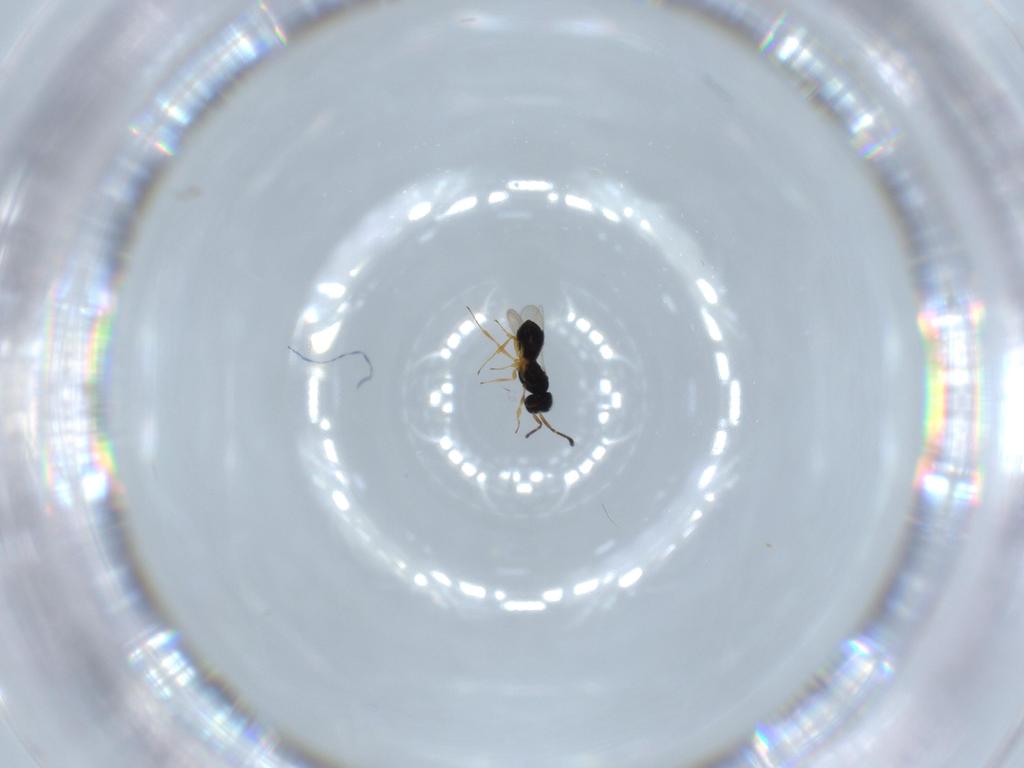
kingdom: Animalia
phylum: Arthropoda
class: Insecta
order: Hymenoptera
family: Scelionidae
